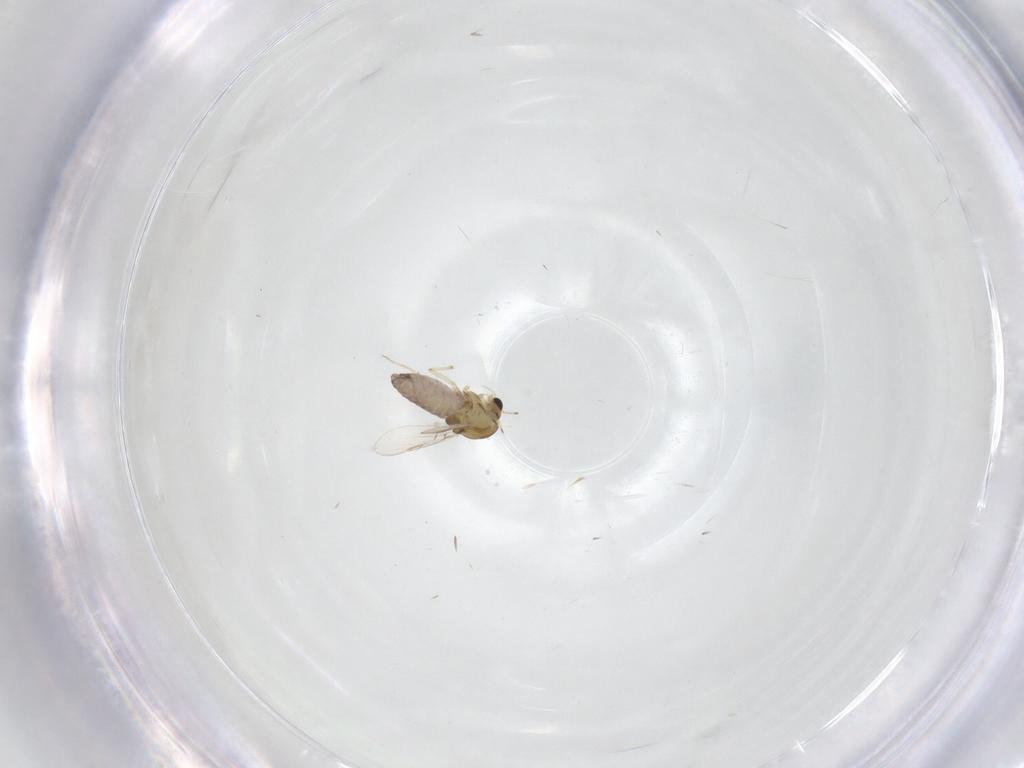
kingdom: Animalia
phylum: Arthropoda
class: Insecta
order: Diptera
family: Chironomidae
